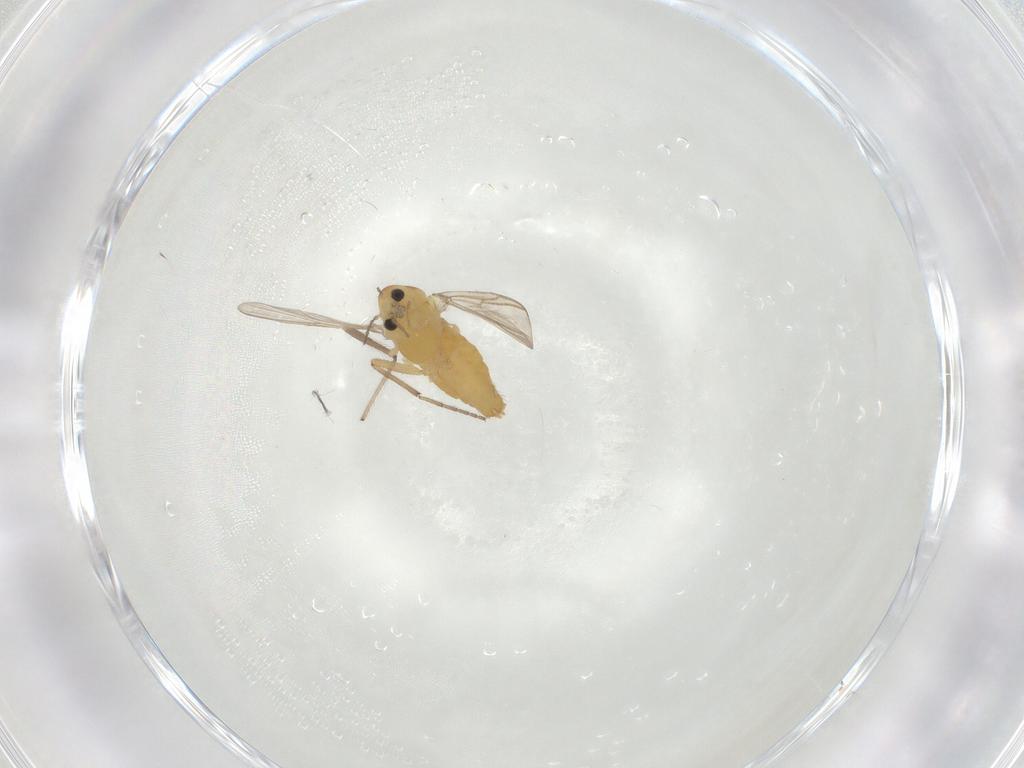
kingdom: Animalia
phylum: Arthropoda
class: Insecta
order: Diptera
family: Chironomidae
